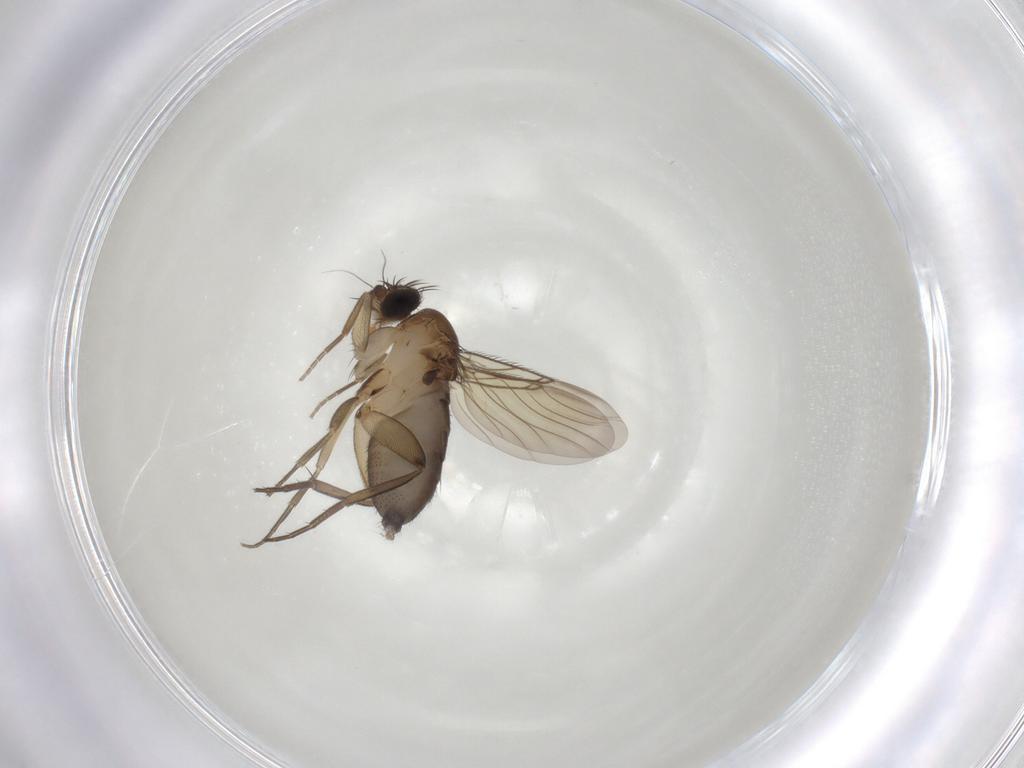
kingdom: Animalia
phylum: Arthropoda
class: Insecta
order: Diptera
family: Phoridae
